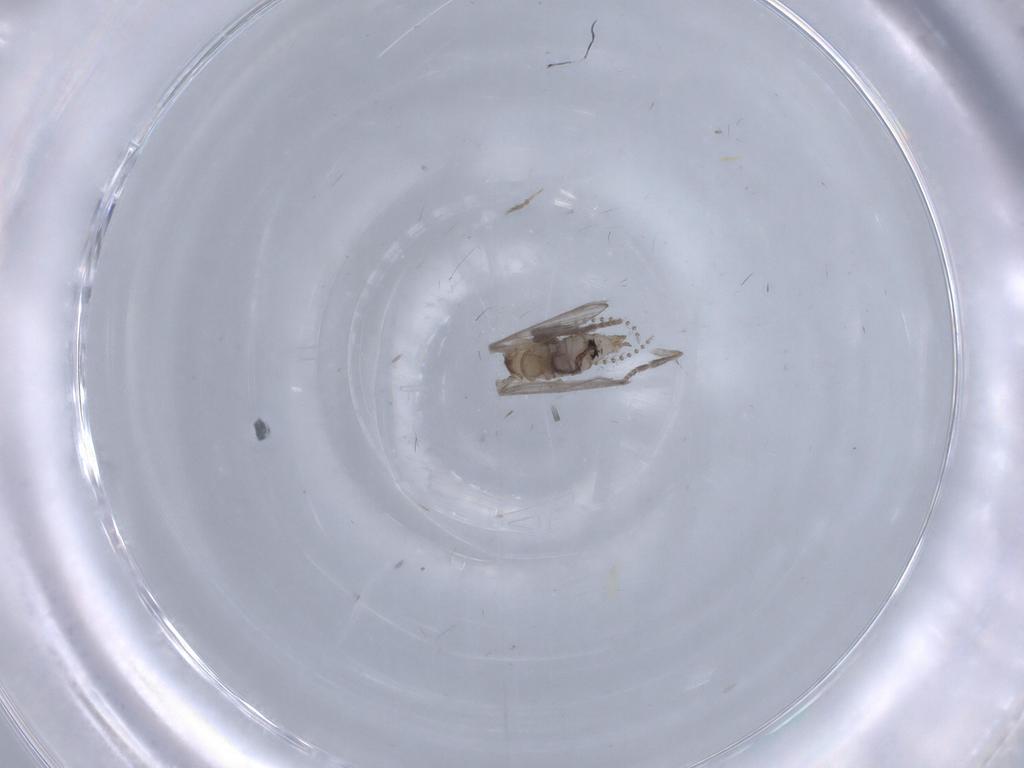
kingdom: Animalia
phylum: Arthropoda
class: Insecta
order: Diptera
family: Psychodidae
